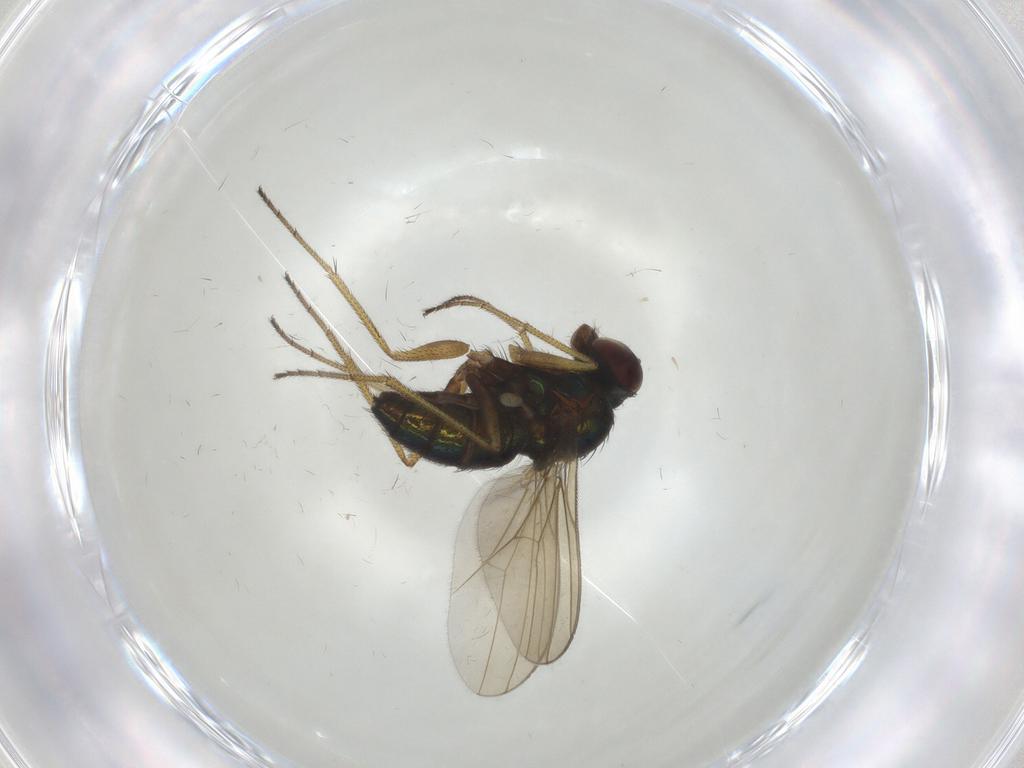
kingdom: Animalia
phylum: Arthropoda
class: Insecta
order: Diptera
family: Dolichopodidae
